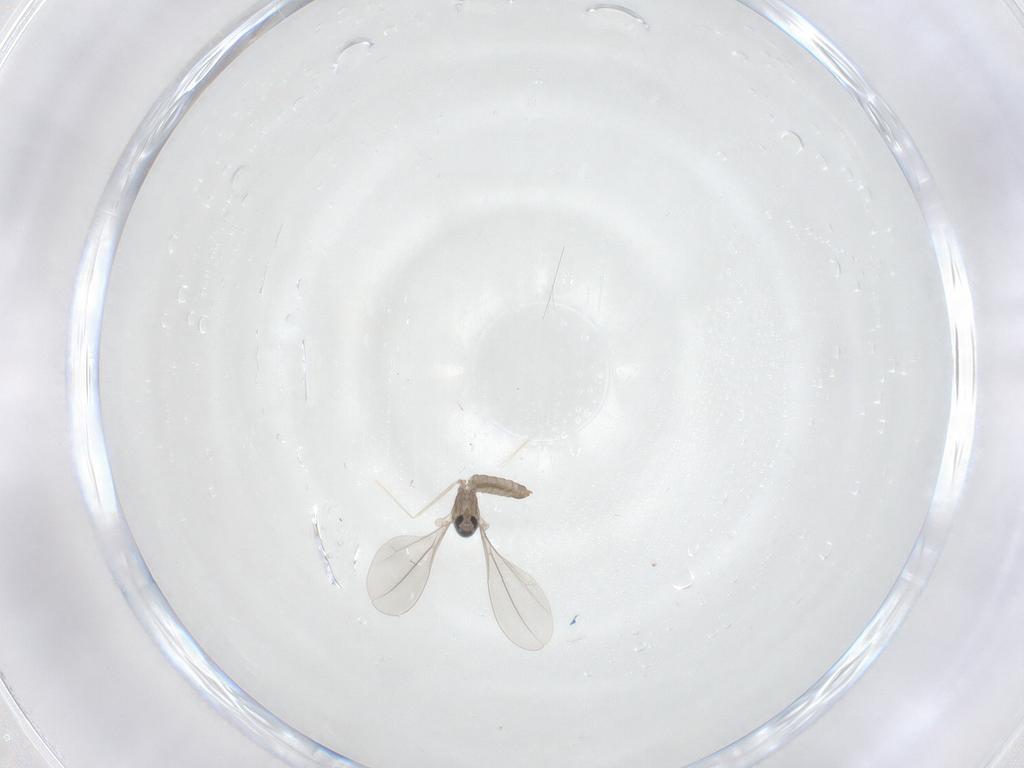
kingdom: Animalia
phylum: Arthropoda
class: Insecta
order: Diptera
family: Cecidomyiidae
